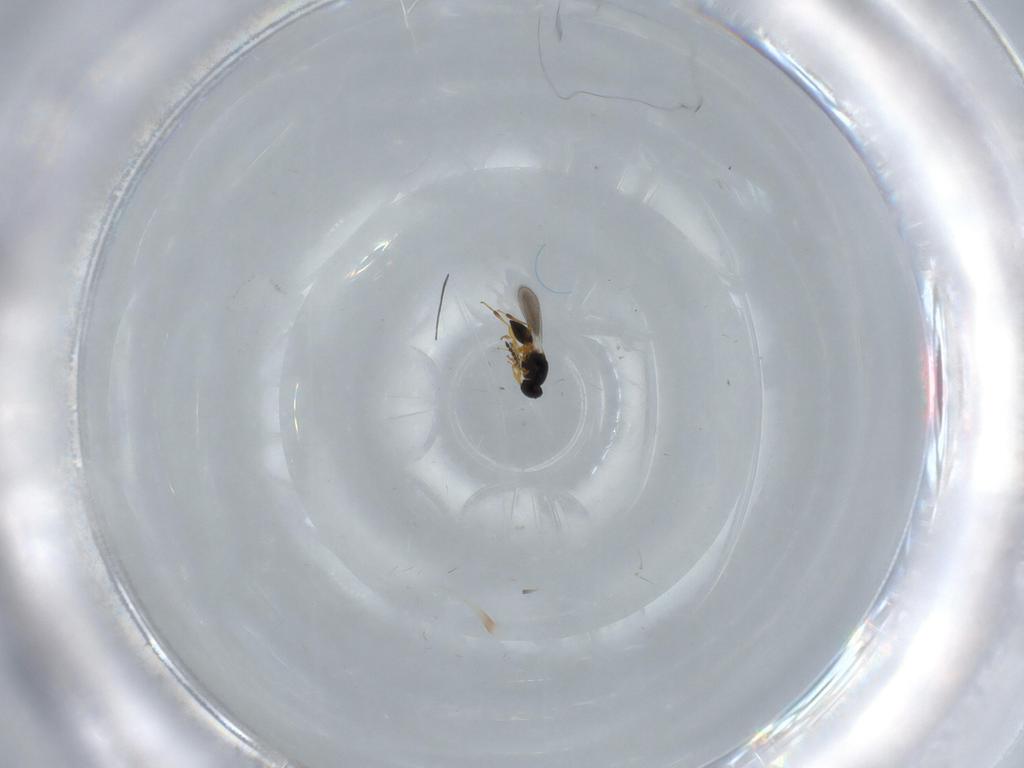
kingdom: Animalia
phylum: Arthropoda
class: Insecta
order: Hymenoptera
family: Platygastridae
